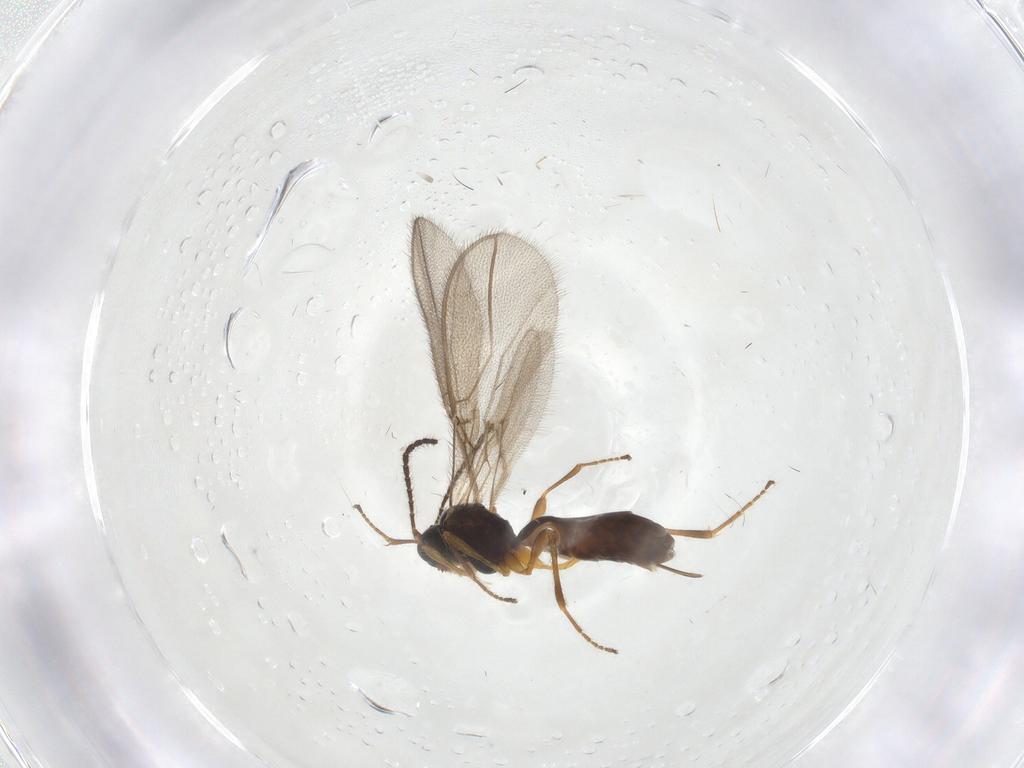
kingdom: Animalia
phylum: Arthropoda
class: Insecta
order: Hymenoptera
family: Braconidae
